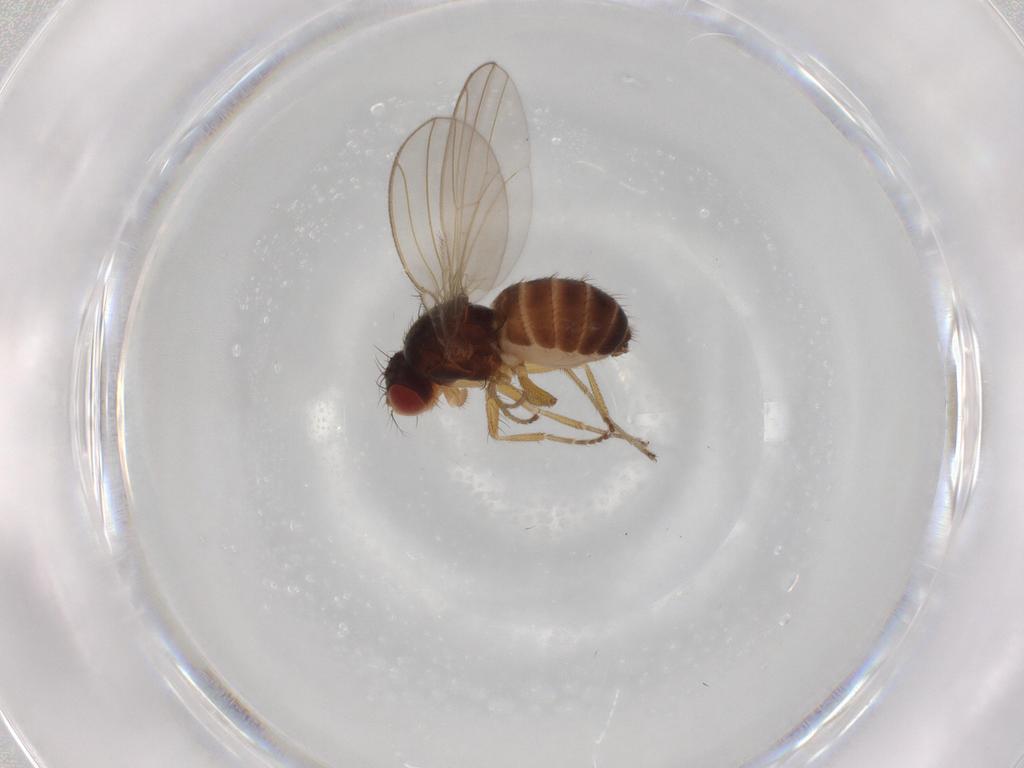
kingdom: Animalia
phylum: Arthropoda
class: Insecta
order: Diptera
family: Drosophilidae
